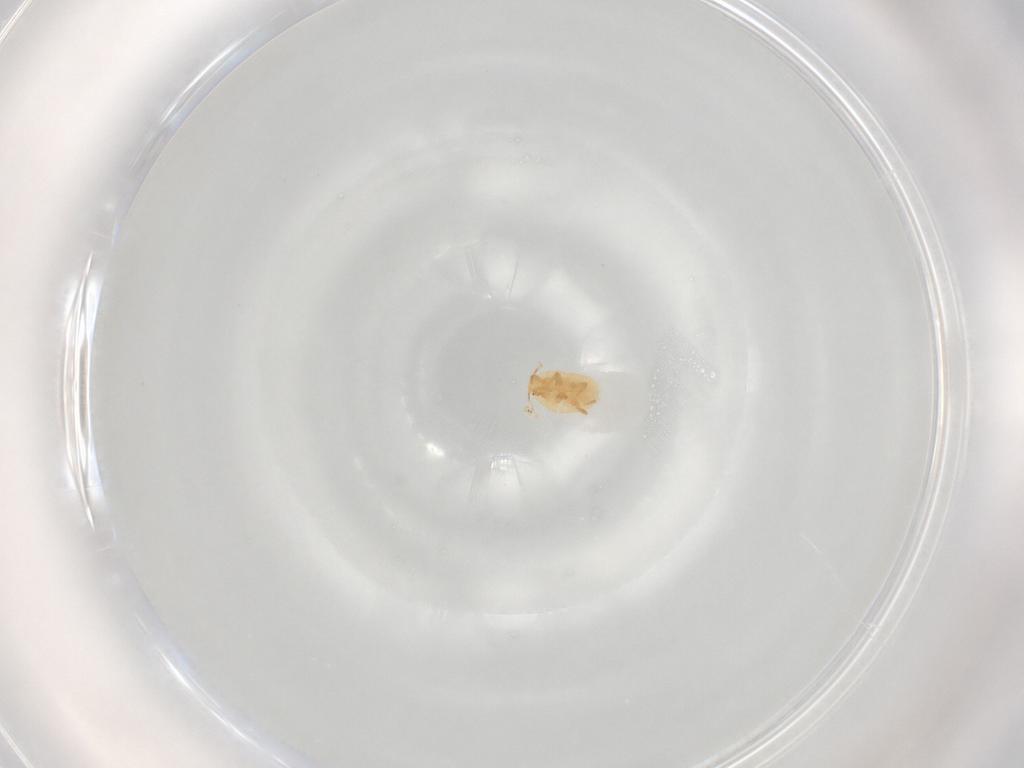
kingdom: Animalia
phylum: Arthropoda
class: Insecta
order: Hemiptera
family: Pseudococcidae
